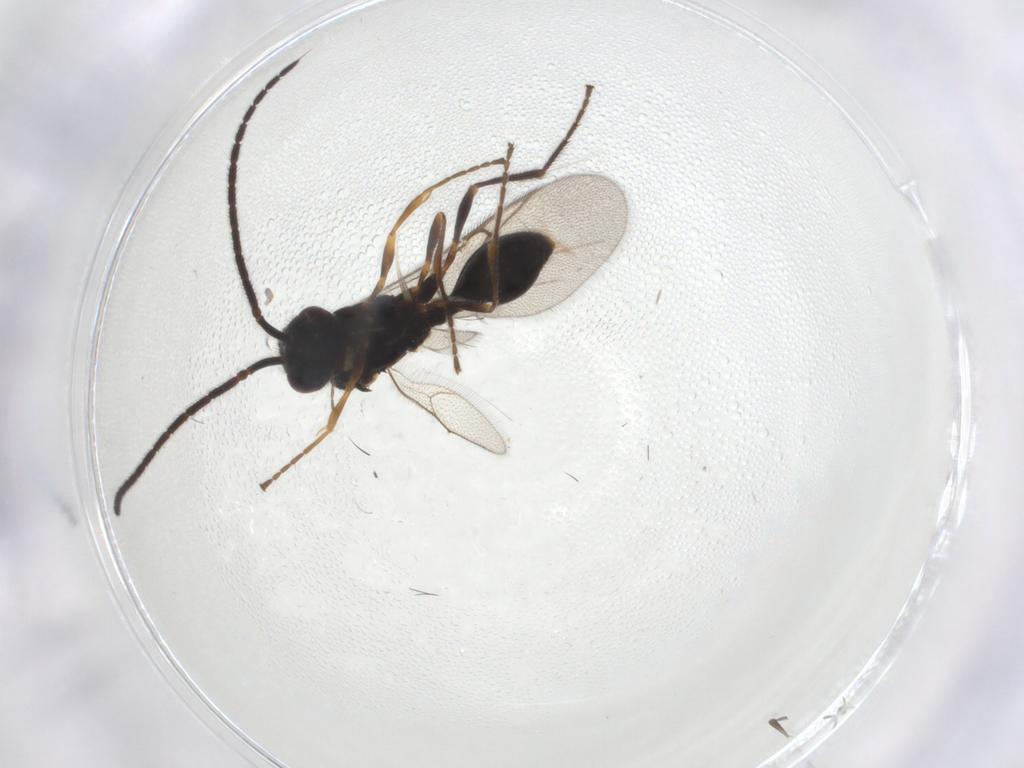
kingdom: Animalia
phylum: Arthropoda
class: Insecta
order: Hymenoptera
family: Diapriidae
